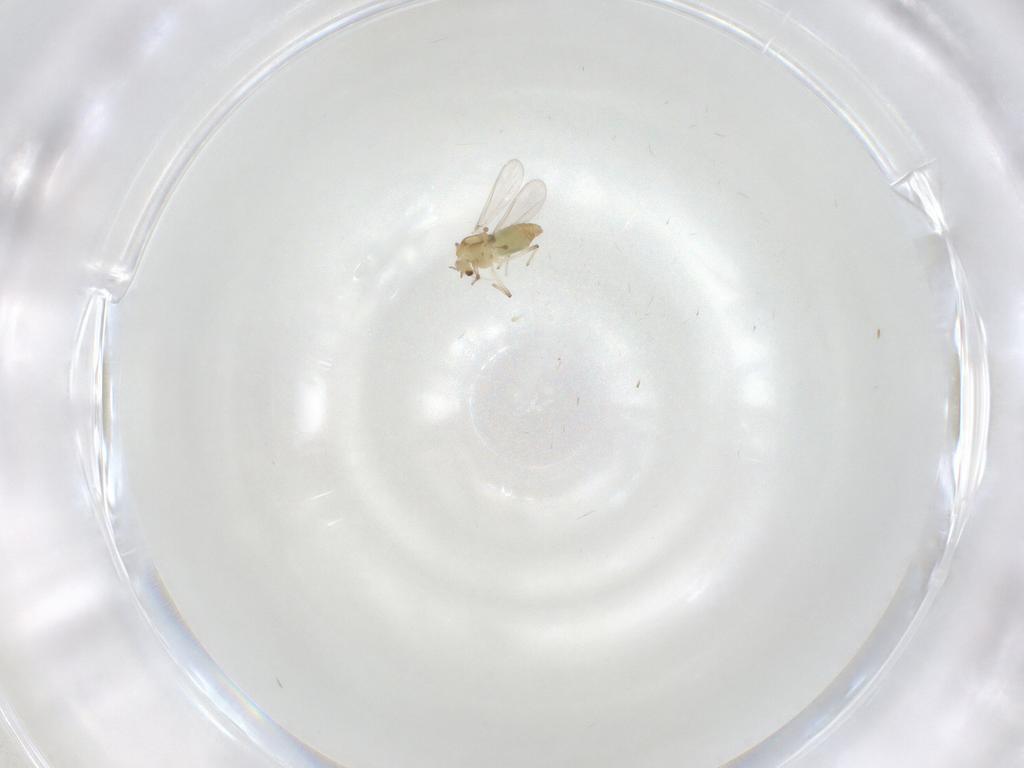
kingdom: Animalia
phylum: Arthropoda
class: Insecta
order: Diptera
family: Chironomidae
